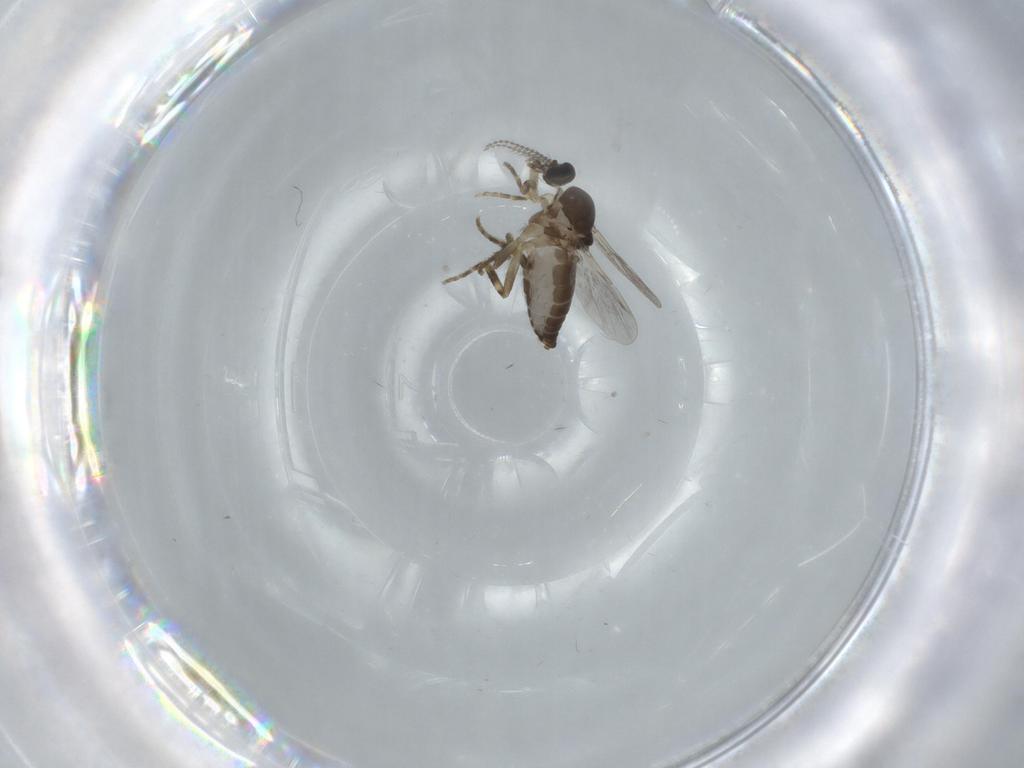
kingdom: Animalia
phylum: Arthropoda
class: Insecta
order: Diptera
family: Ceratopogonidae
